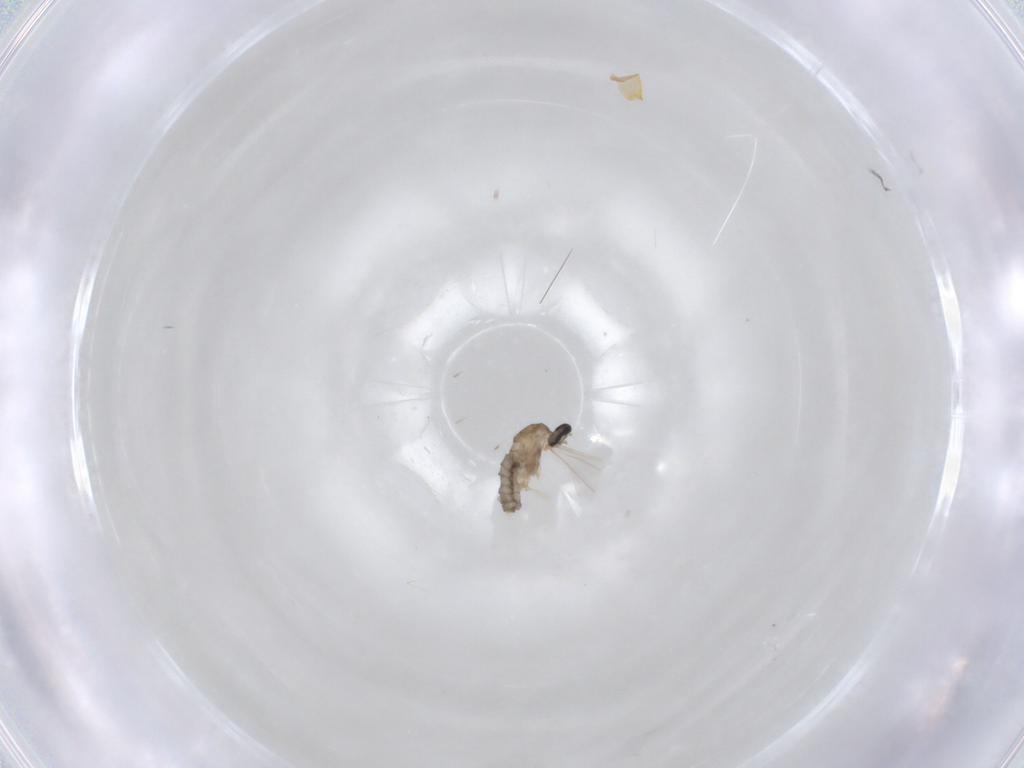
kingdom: Animalia
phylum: Arthropoda
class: Insecta
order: Diptera
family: Cecidomyiidae
